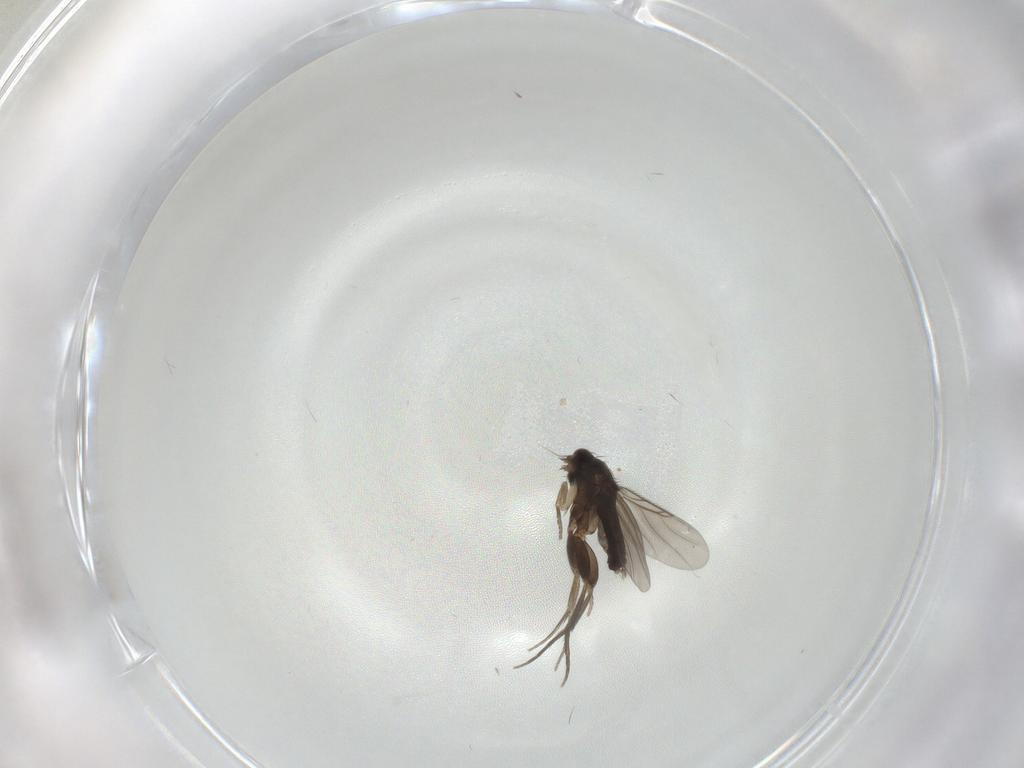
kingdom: Animalia
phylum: Arthropoda
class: Insecta
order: Diptera
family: Phoridae
